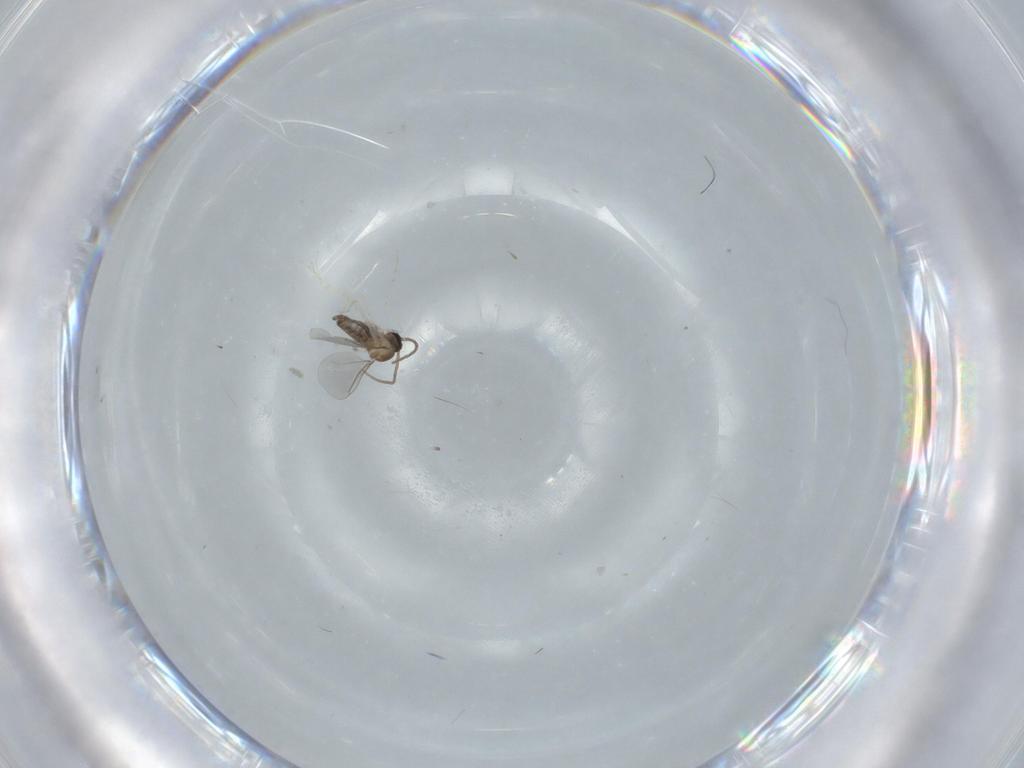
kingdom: Animalia
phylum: Arthropoda
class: Insecta
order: Diptera
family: Cecidomyiidae
